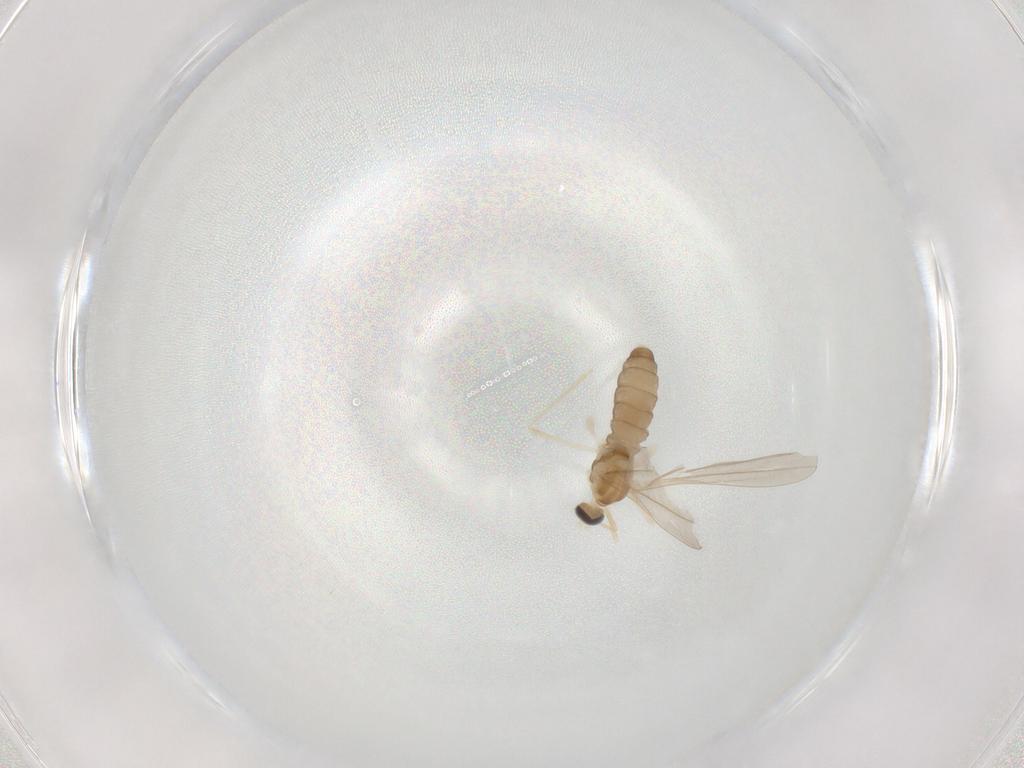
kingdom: Animalia
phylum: Arthropoda
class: Insecta
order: Diptera
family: Cecidomyiidae
